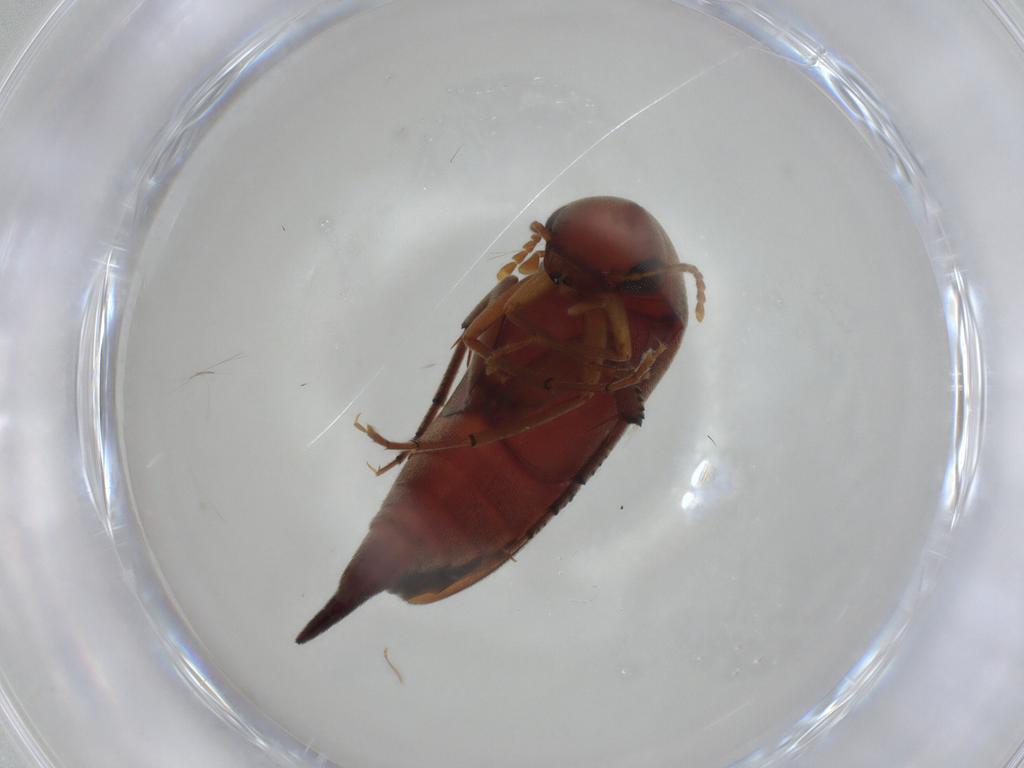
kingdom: Animalia
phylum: Arthropoda
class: Insecta
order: Coleoptera
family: Mordellidae
